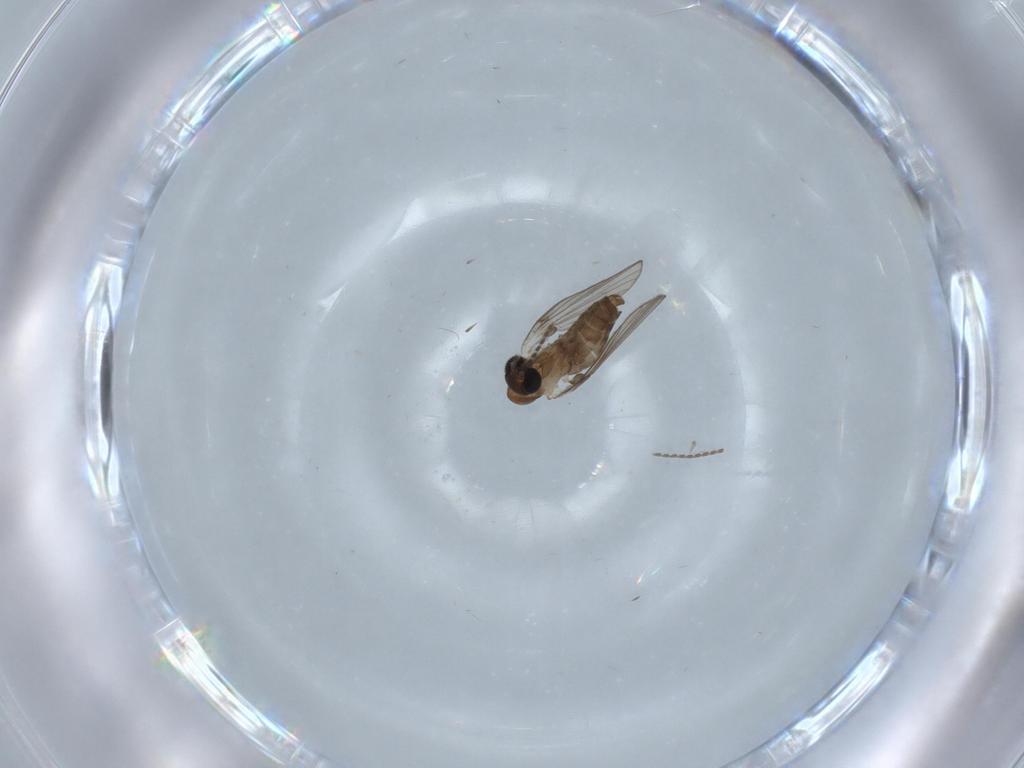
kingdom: Animalia
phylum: Arthropoda
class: Insecta
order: Diptera
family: Sciaridae
